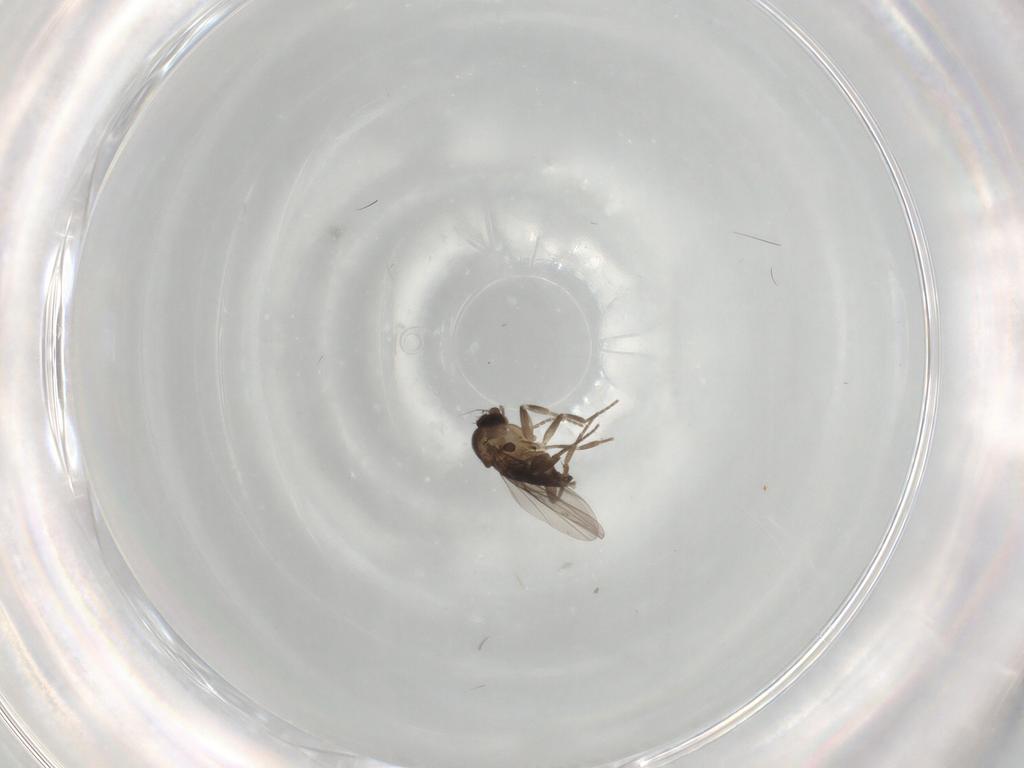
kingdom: Animalia
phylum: Arthropoda
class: Insecta
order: Diptera
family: Phoridae
